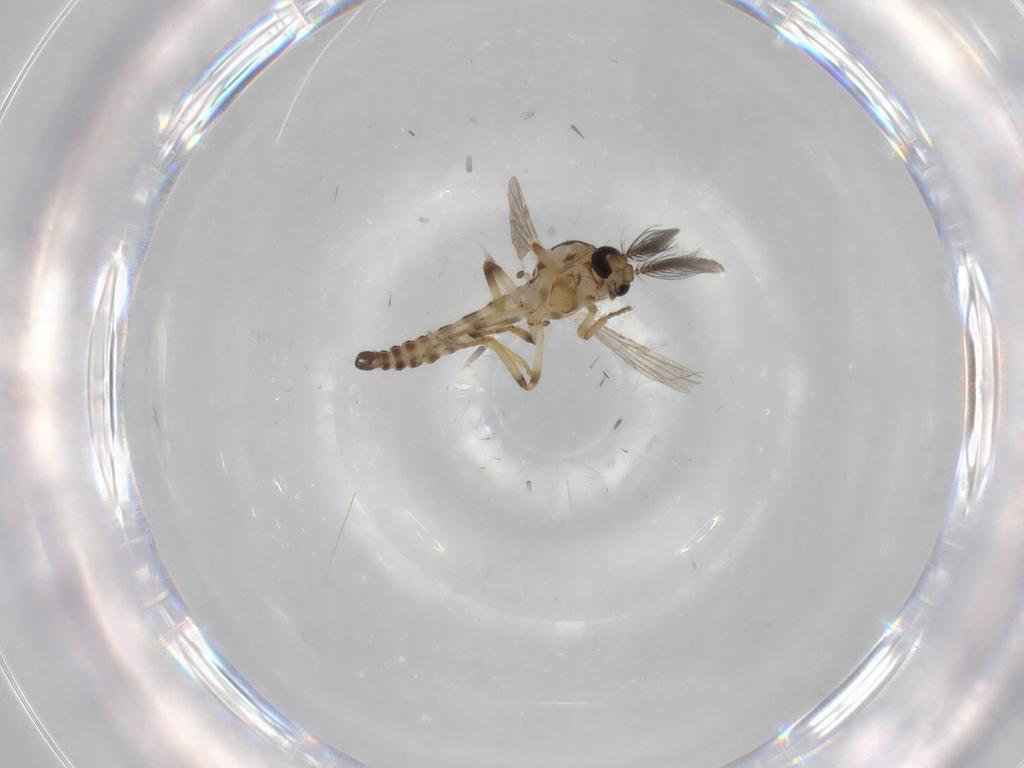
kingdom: Animalia
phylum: Arthropoda
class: Insecta
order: Diptera
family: Ceratopogonidae
